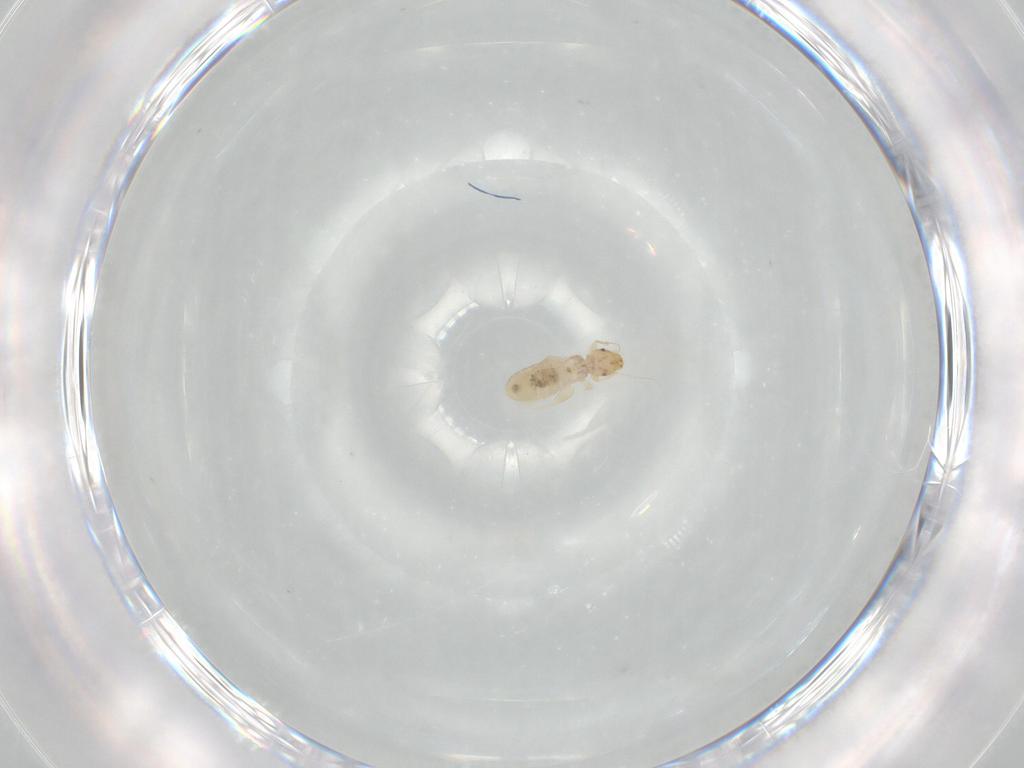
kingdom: Animalia
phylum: Arthropoda
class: Insecta
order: Psocodea
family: Liposcelididae
